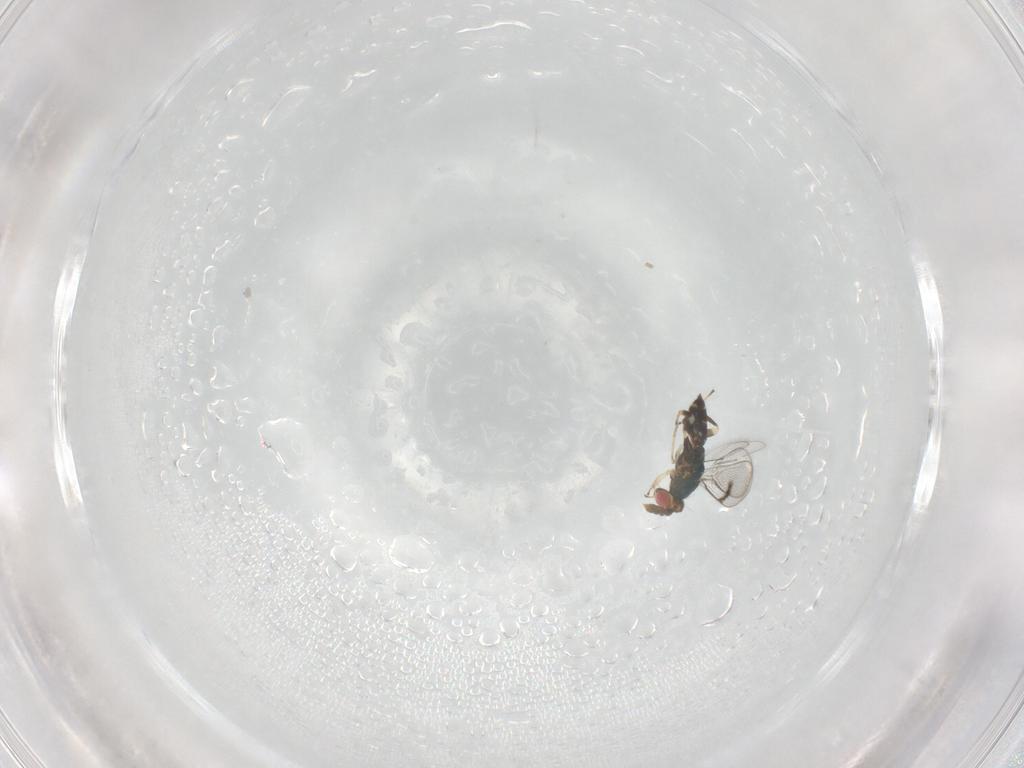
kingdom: Animalia
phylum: Arthropoda
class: Insecta
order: Hymenoptera
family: Eulophidae
